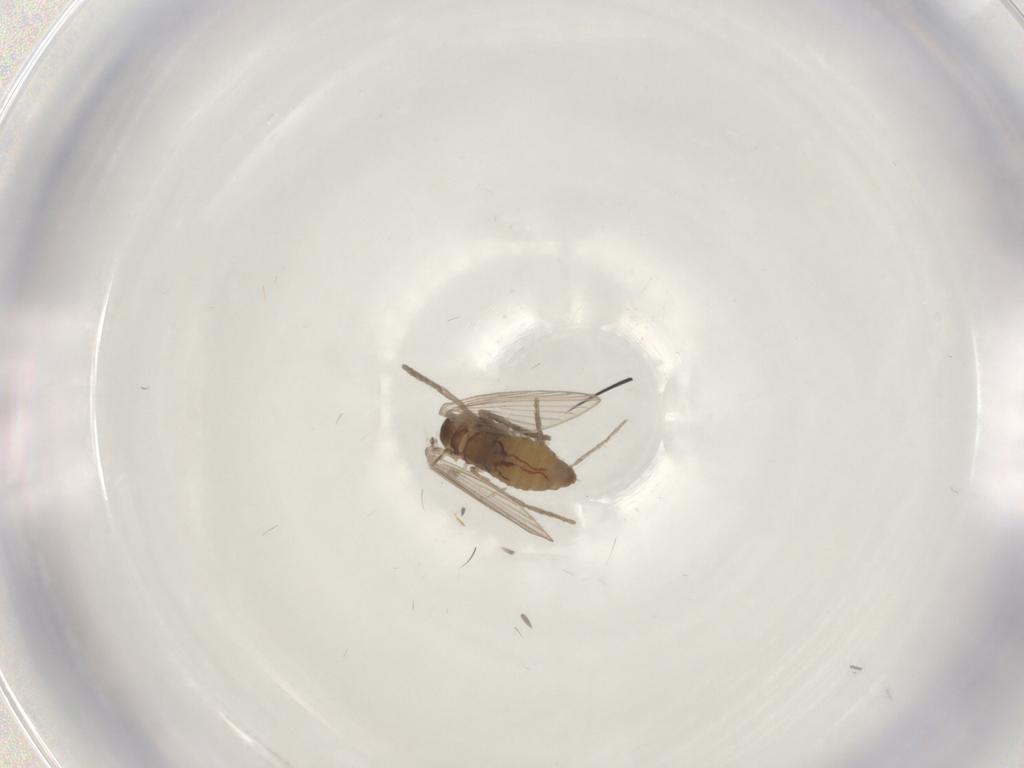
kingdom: Animalia
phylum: Arthropoda
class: Insecta
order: Diptera
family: Psychodidae
